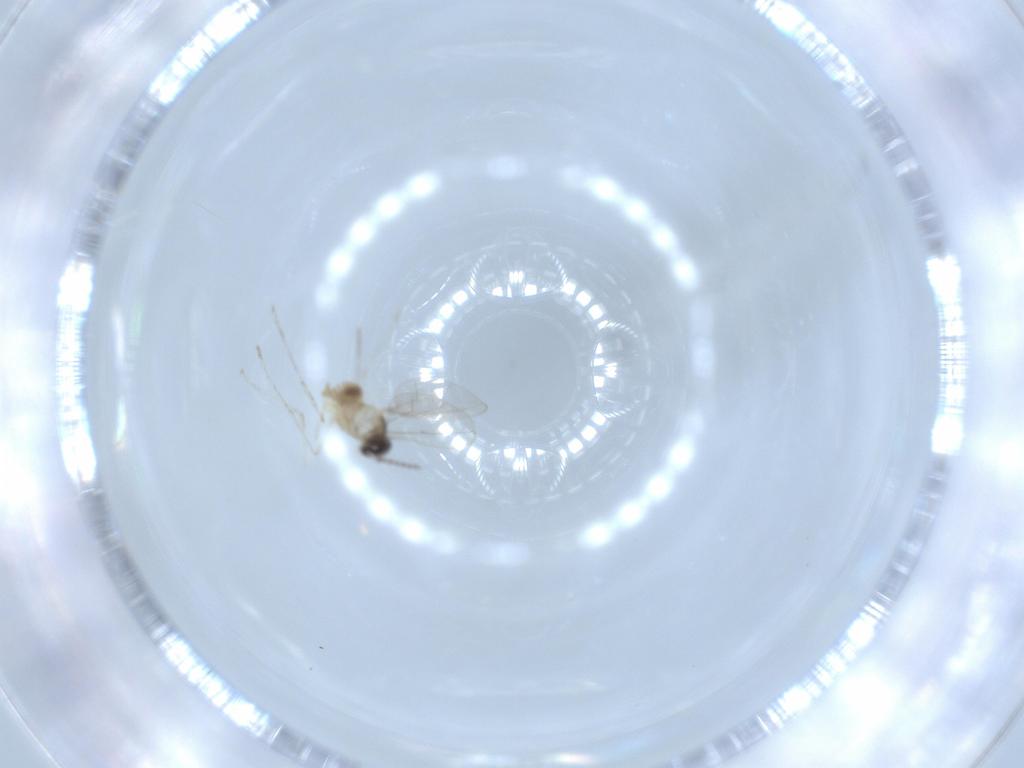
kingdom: Animalia
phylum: Arthropoda
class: Insecta
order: Diptera
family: Cecidomyiidae
